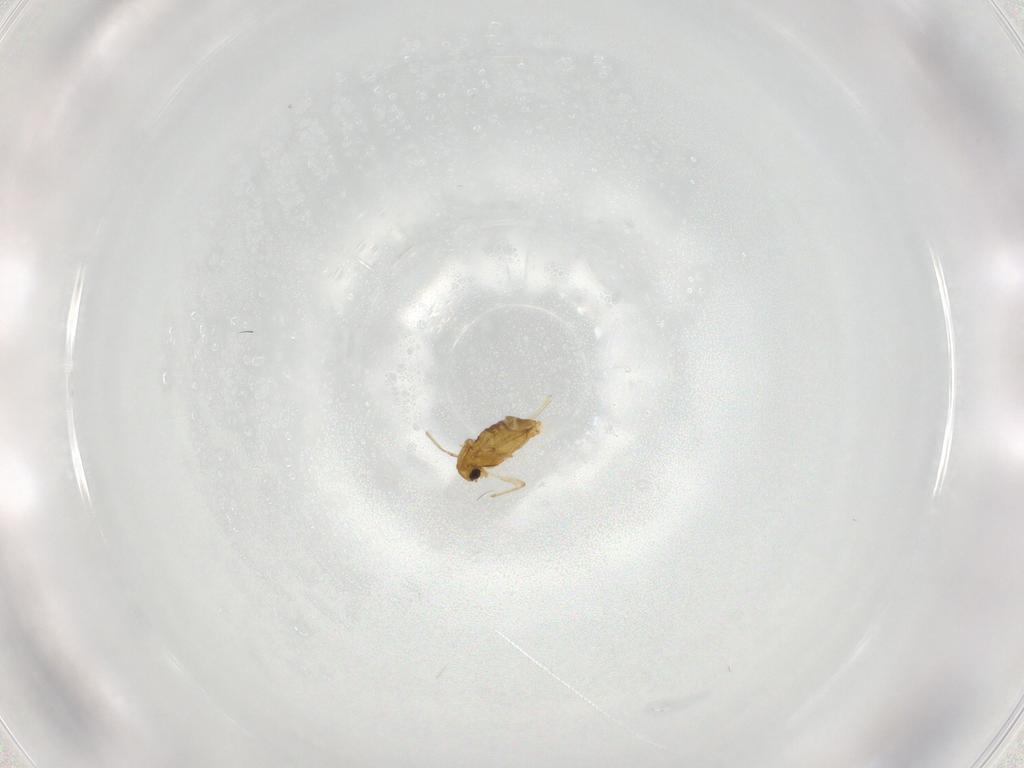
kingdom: Animalia
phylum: Arthropoda
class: Insecta
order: Diptera
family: Chironomidae
